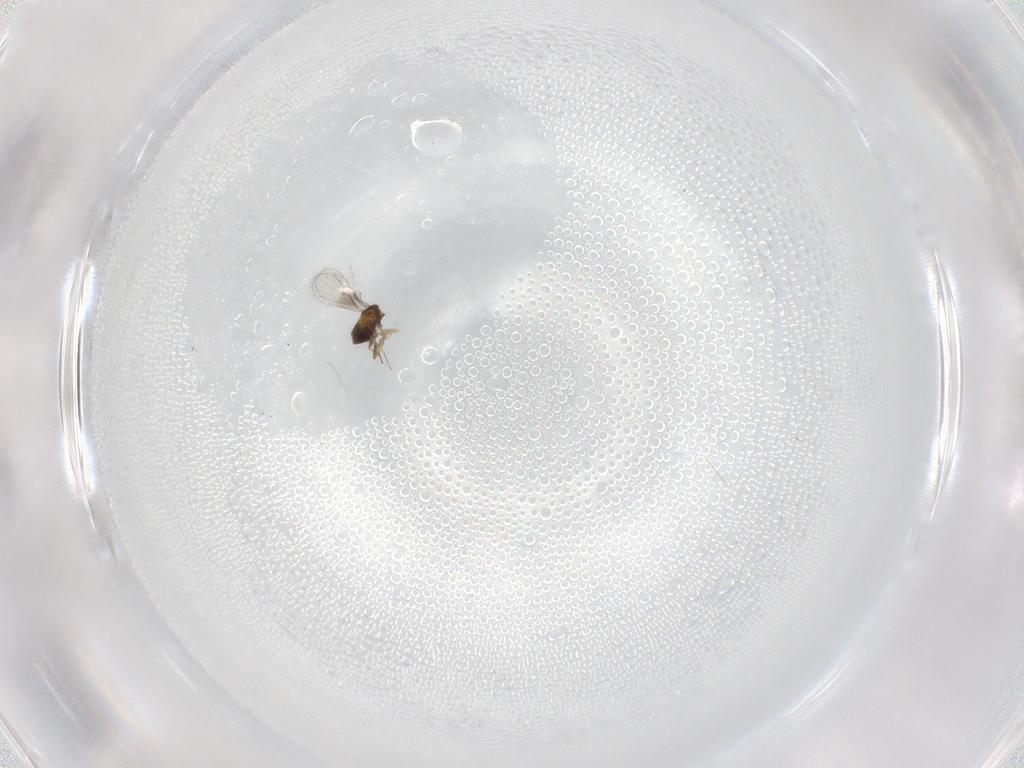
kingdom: Animalia
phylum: Arthropoda
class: Insecta
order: Hymenoptera
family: Trichogrammatidae
